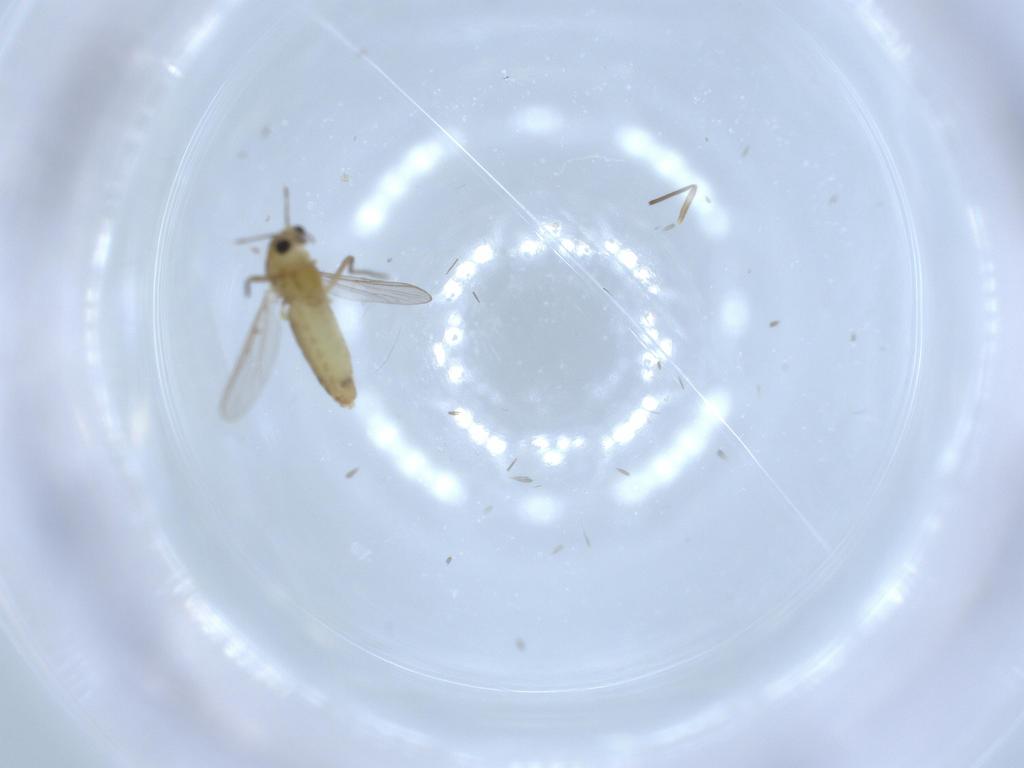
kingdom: Animalia
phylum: Arthropoda
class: Insecta
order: Diptera
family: Chironomidae
